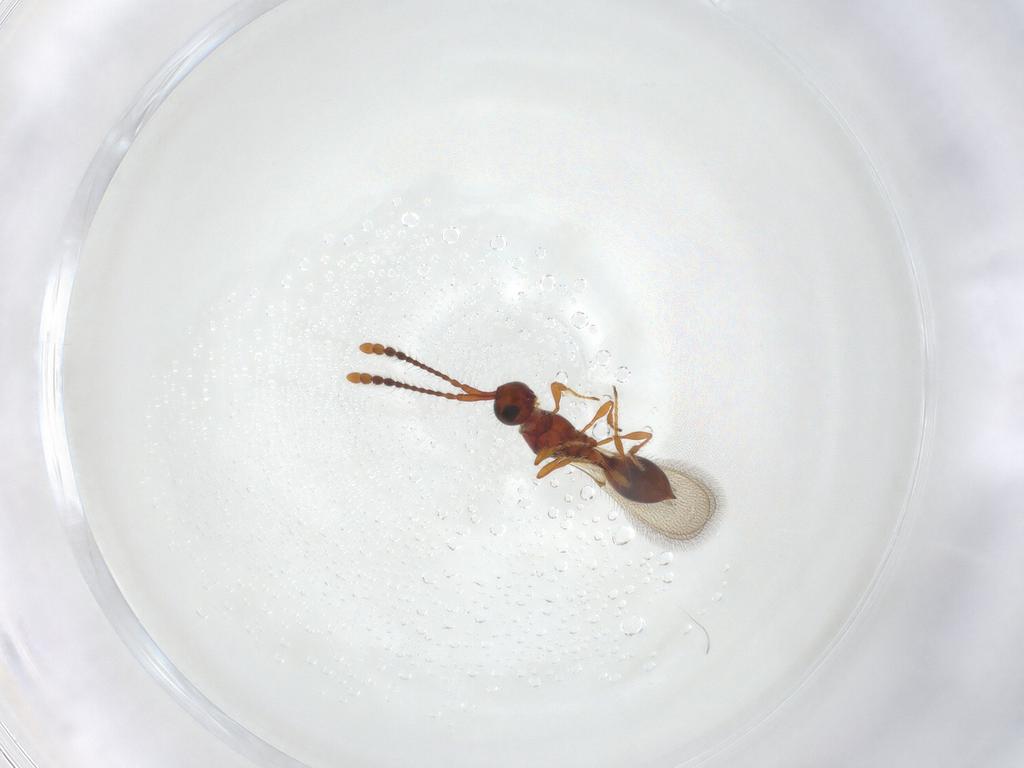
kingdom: Animalia
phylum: Arthropoda
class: Insecta
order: Hymenoptera
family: Diapriidae
